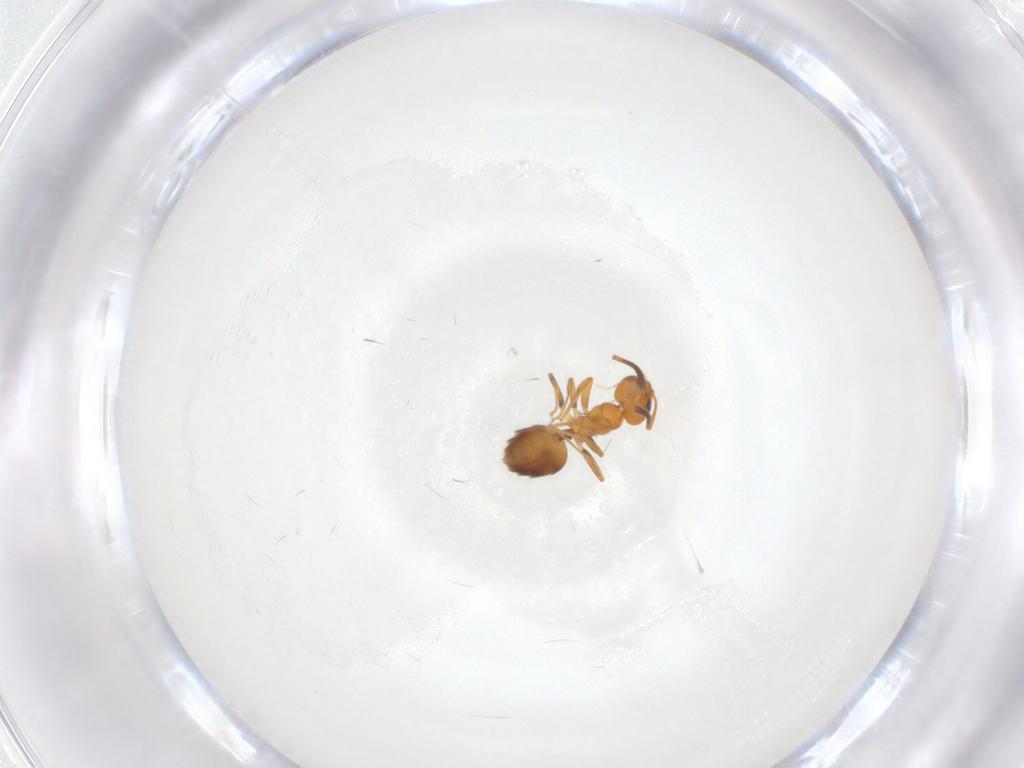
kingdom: Animalia
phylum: Arthropoda
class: Insecta
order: Hymenoptera
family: Formicidae
